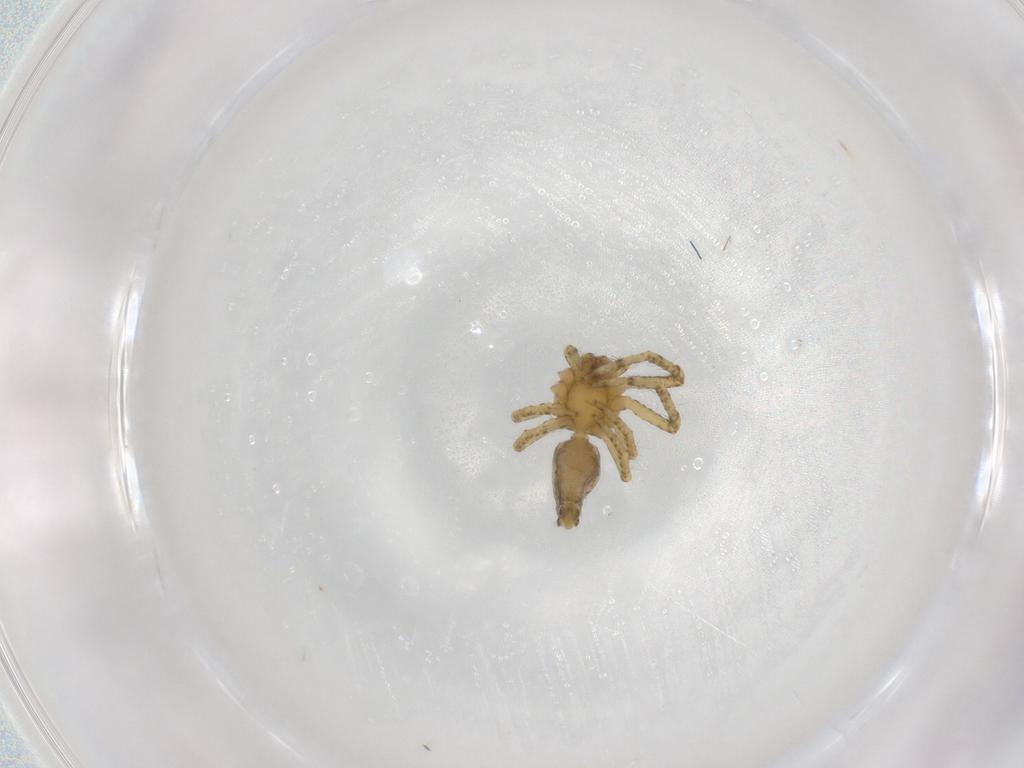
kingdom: Animalia
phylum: Arthropoda
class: Arachnida
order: Araneae
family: Thomisidae
